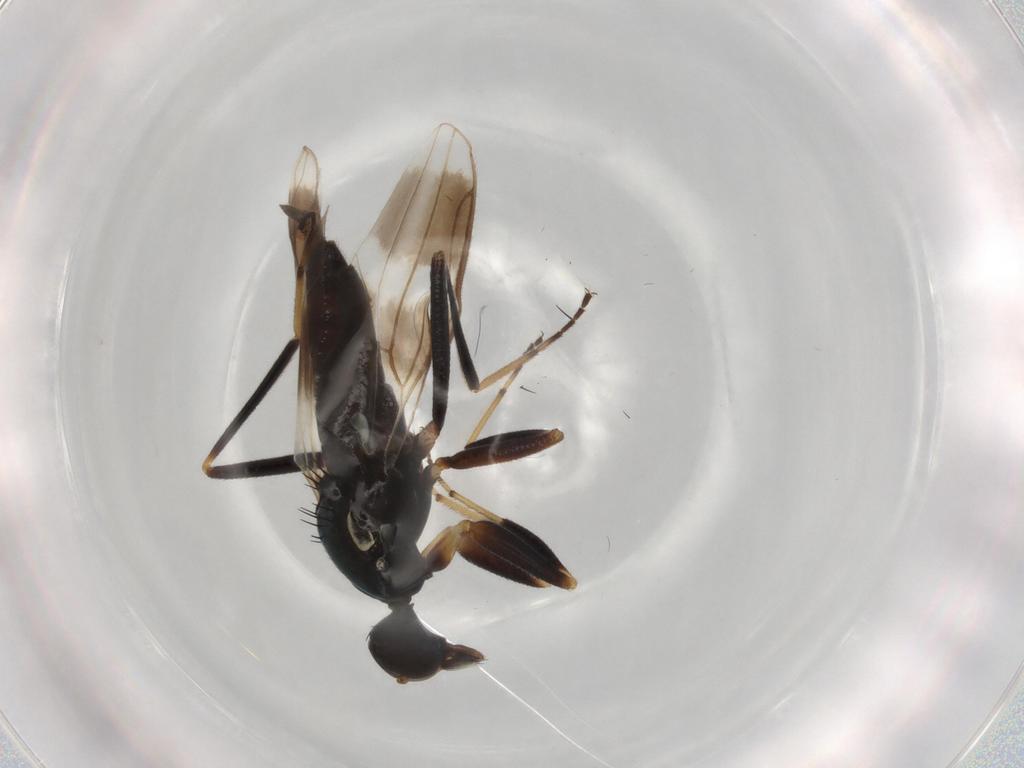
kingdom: Animalia
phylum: Arthropoda
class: Insecta
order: Diptera
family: Hybotidae
